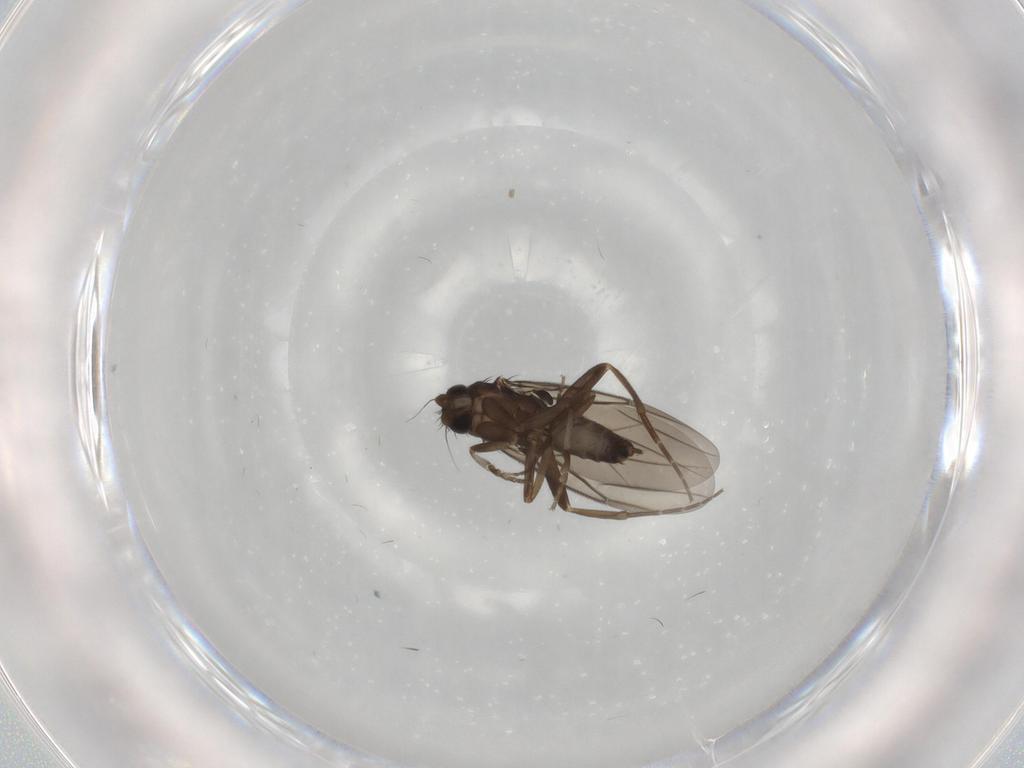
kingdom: Animalia
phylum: Arthropoda
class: Insecta
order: Diptera
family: Phoridae
